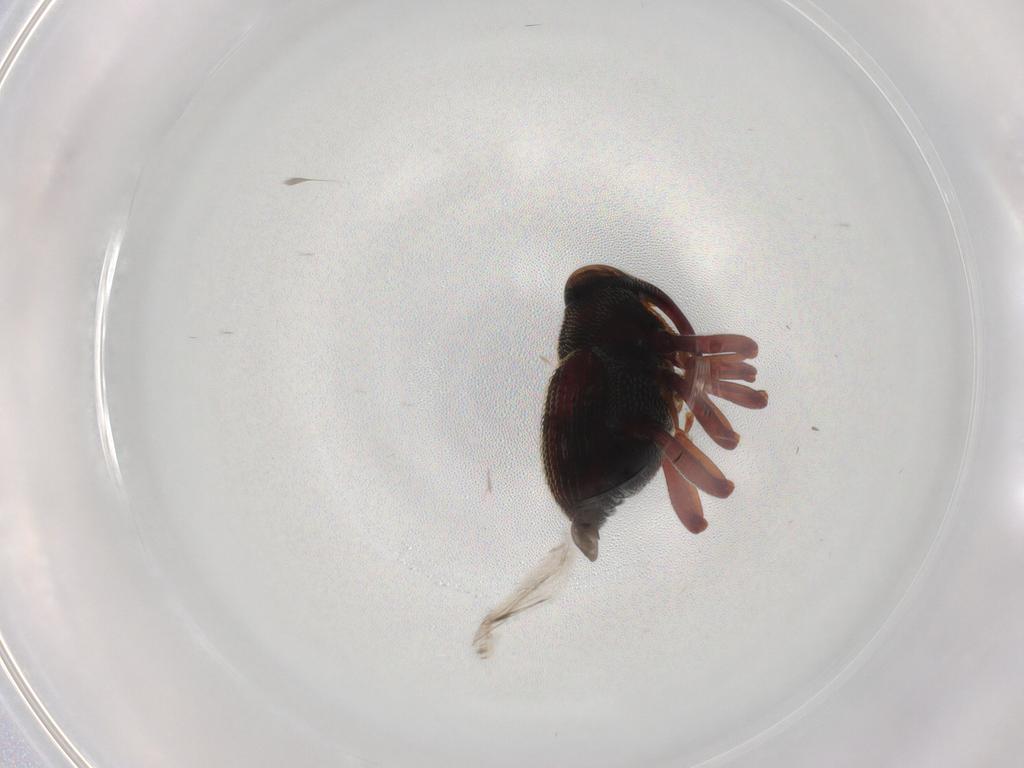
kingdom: Animalia
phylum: Arthropoda
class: Insecta
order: Coleoptera
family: Curculionidae
